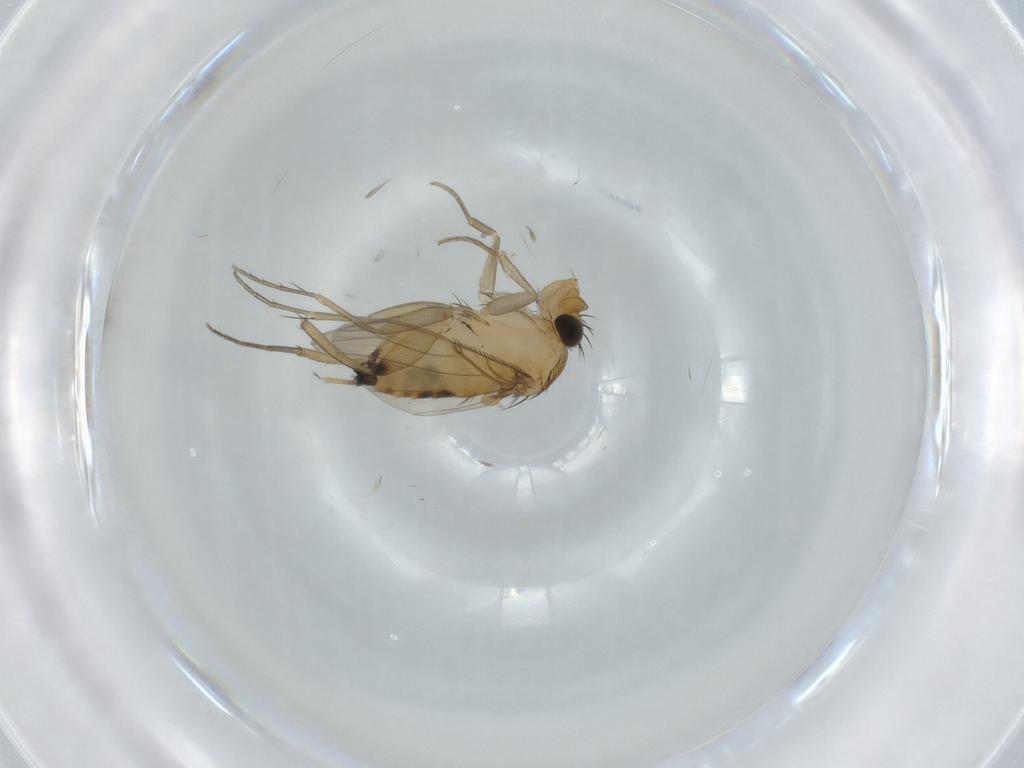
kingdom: Animalia
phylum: Arthropoda
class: Insecta
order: Diptera
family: Phoridae
